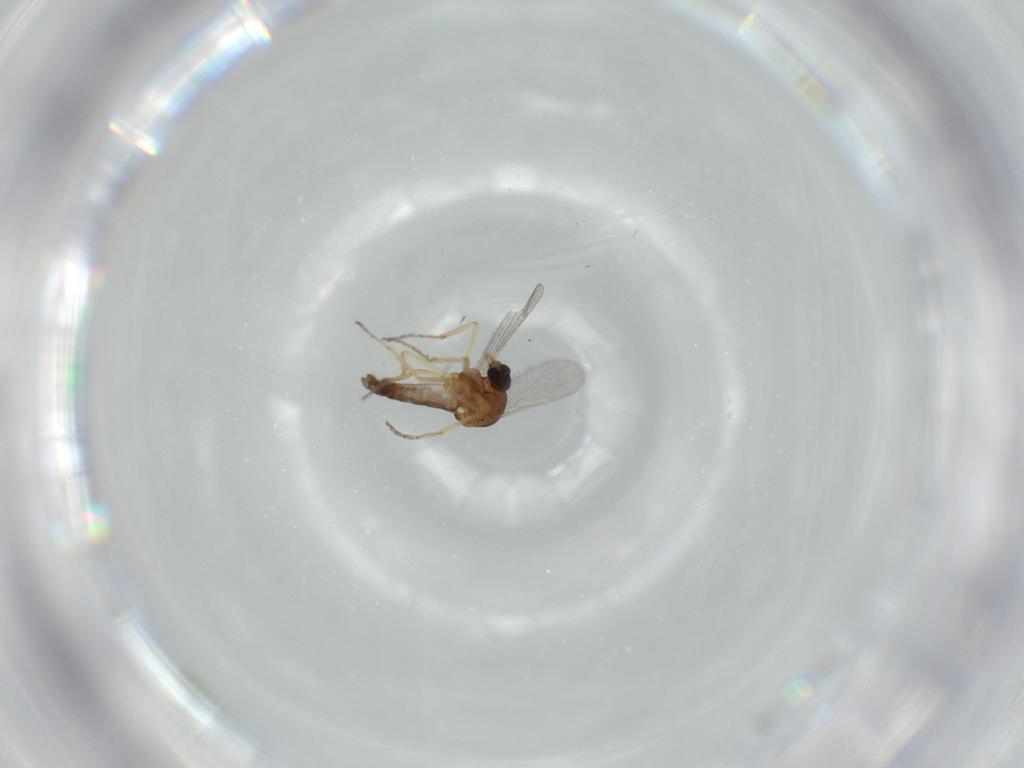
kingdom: Animalia
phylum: Arthropoda
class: Insecta
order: Diptera
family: Ceratopogonidae
